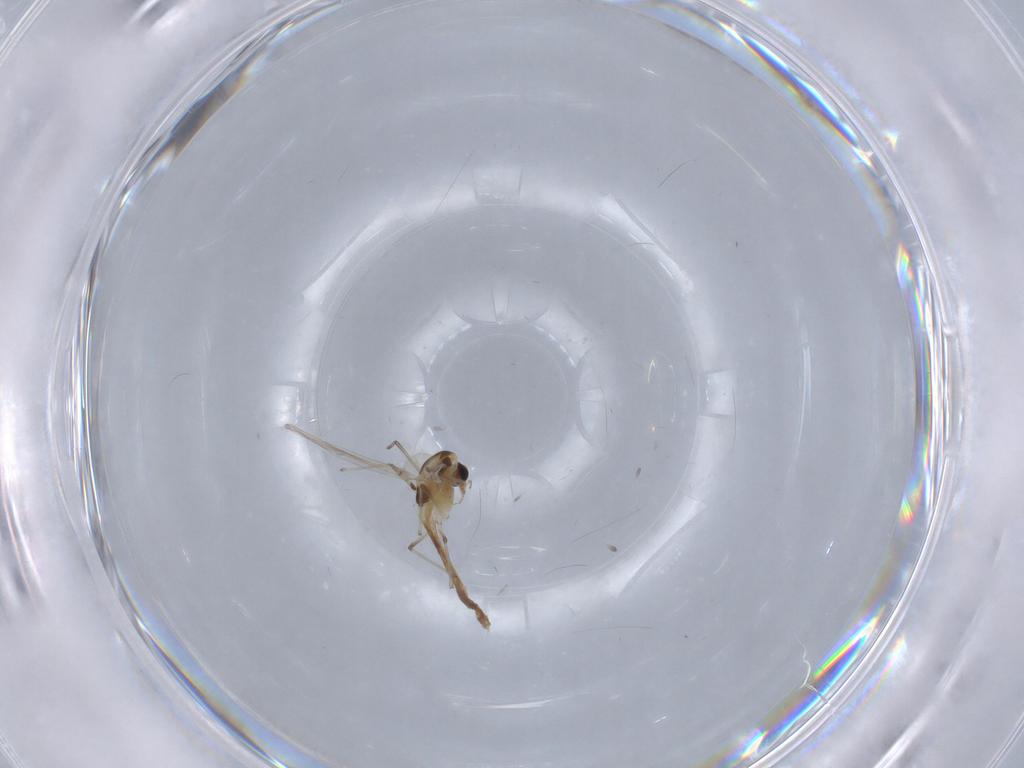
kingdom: Animalia
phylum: Arthropoda
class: Insecta
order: Diptera
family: Chironomidae
